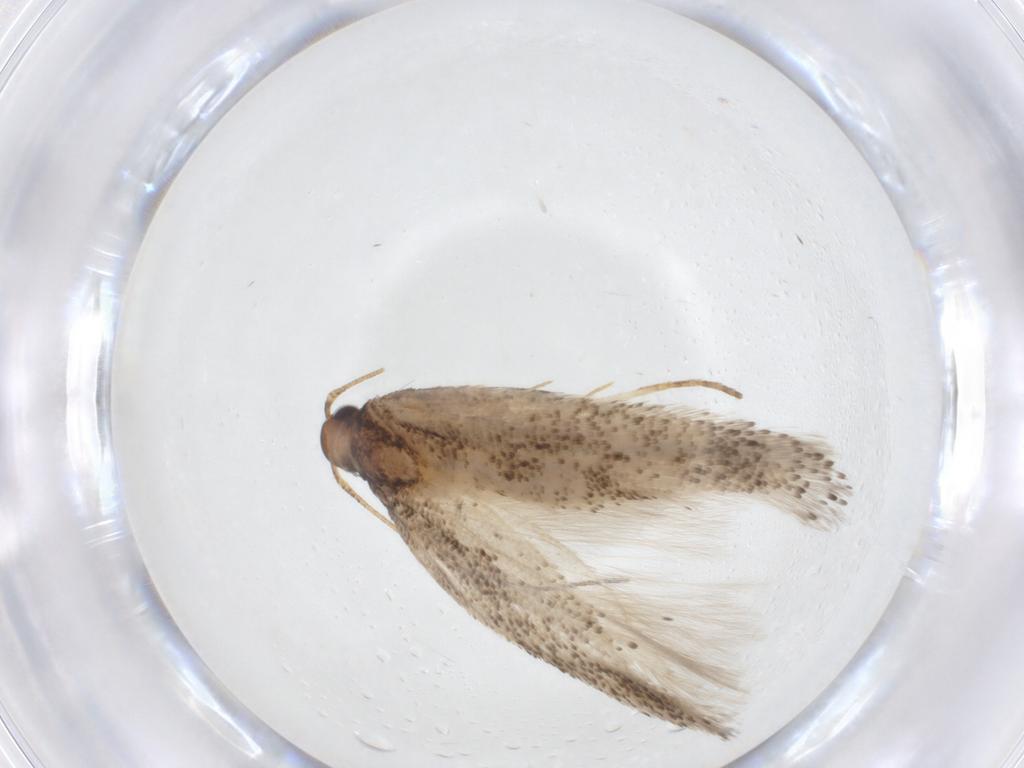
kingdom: Animalia
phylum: Arthropoda
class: Insecta
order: Lepidoptera
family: Gelechiidae
